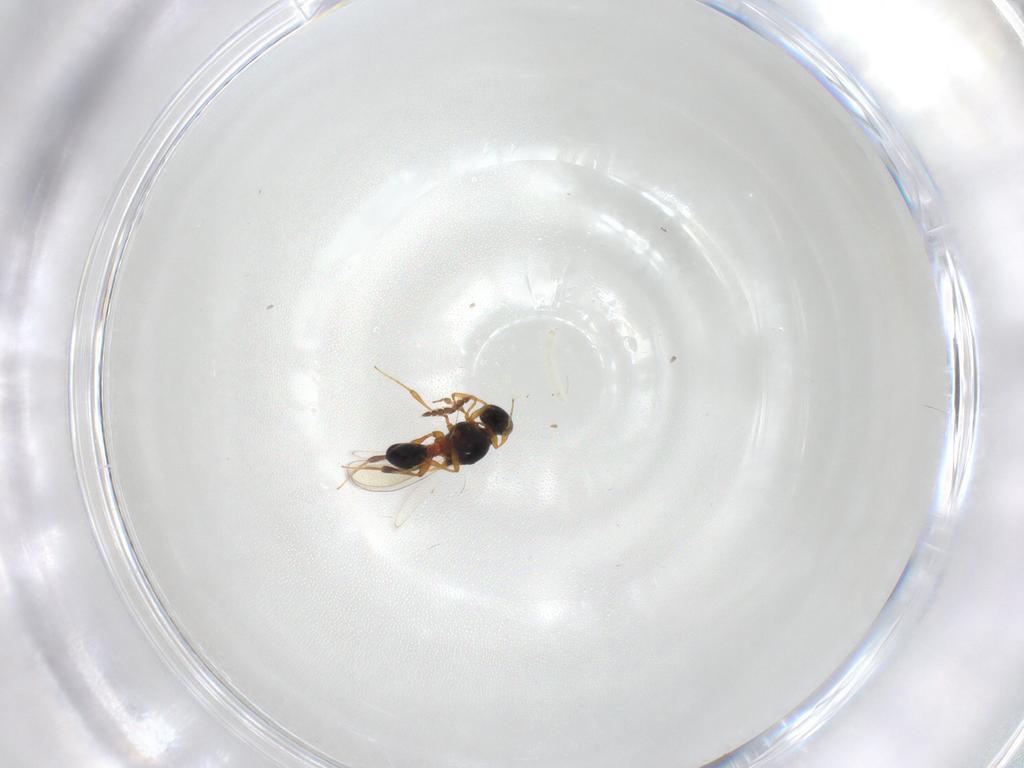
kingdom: Animalia
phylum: Arthropoda
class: Insecta
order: Hymenoptera
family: Platygastridae
